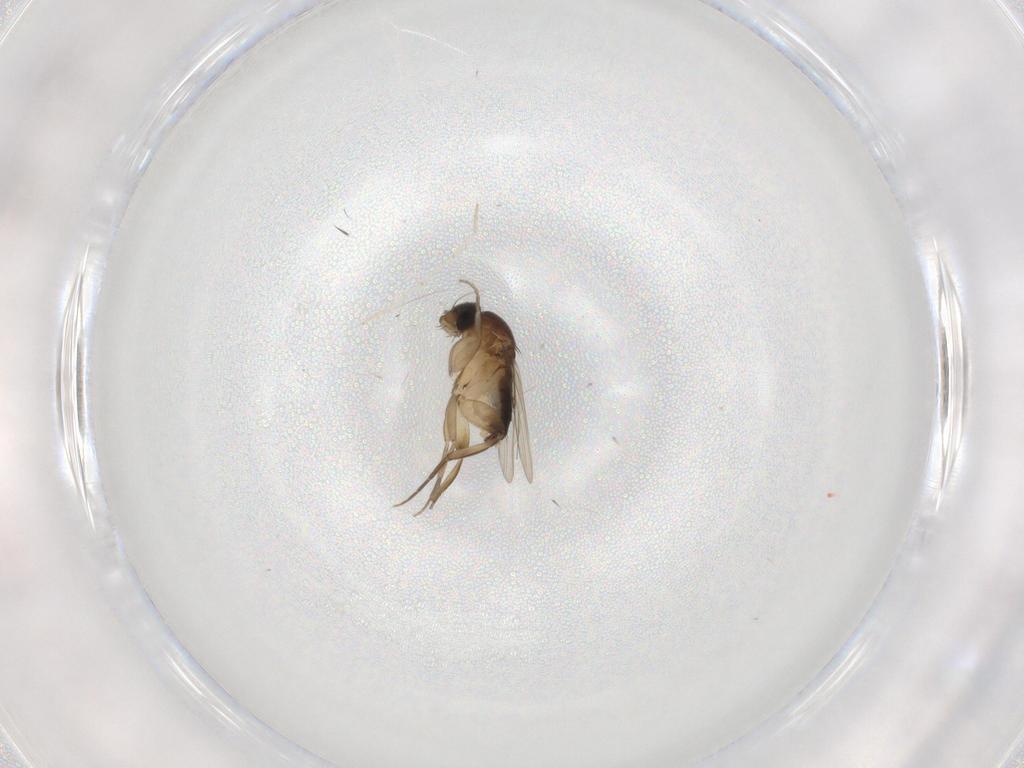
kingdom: Animalia
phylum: Arthropoda
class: Insecta
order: Diptera
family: Phoridae
